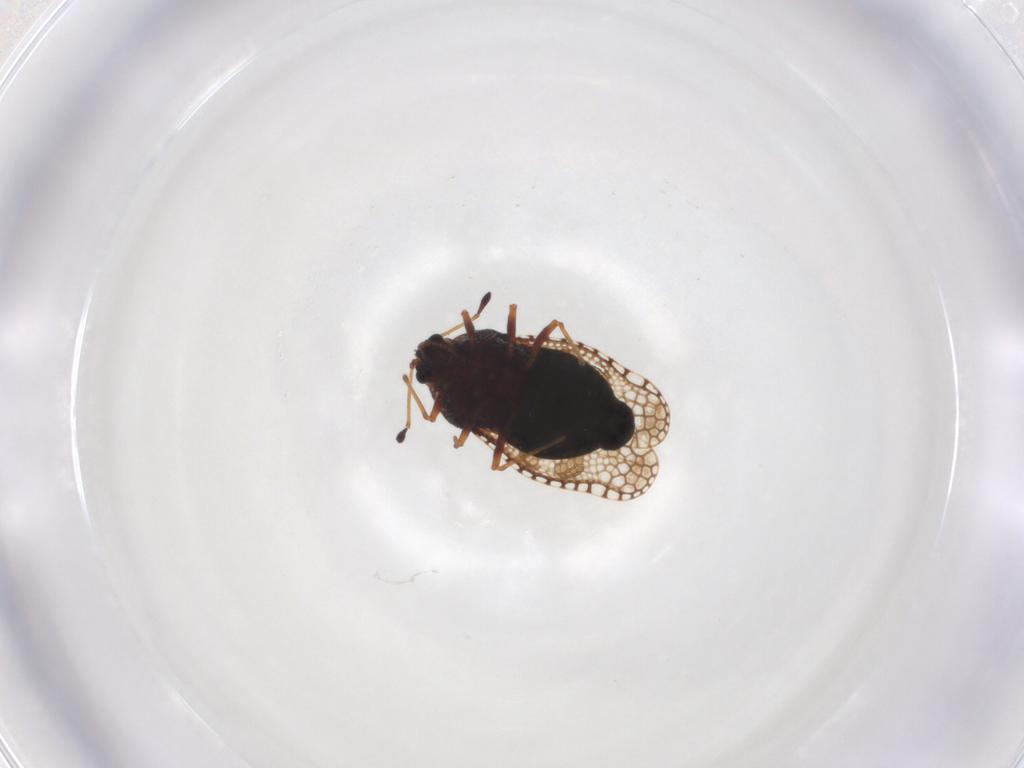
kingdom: Animalia
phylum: Arthropoda
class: Insecta
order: Hemiptera
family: Tingidae
